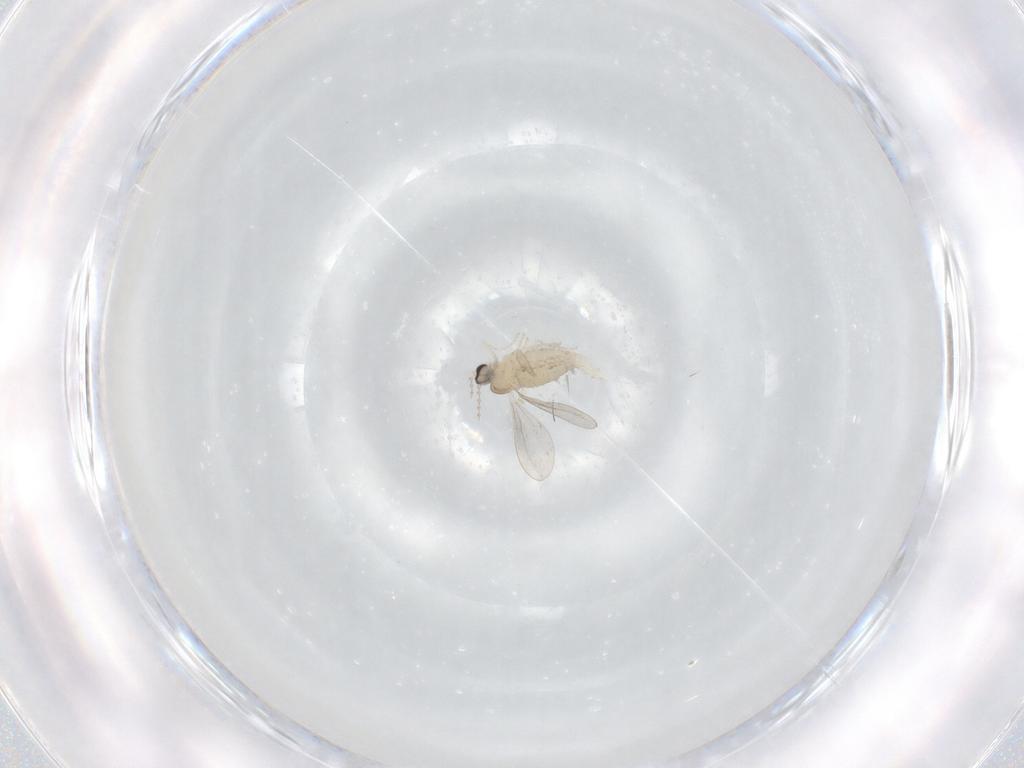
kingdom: Animalia
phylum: Arthropoda
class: Insecta
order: Diptera
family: Cecidomyiidae
